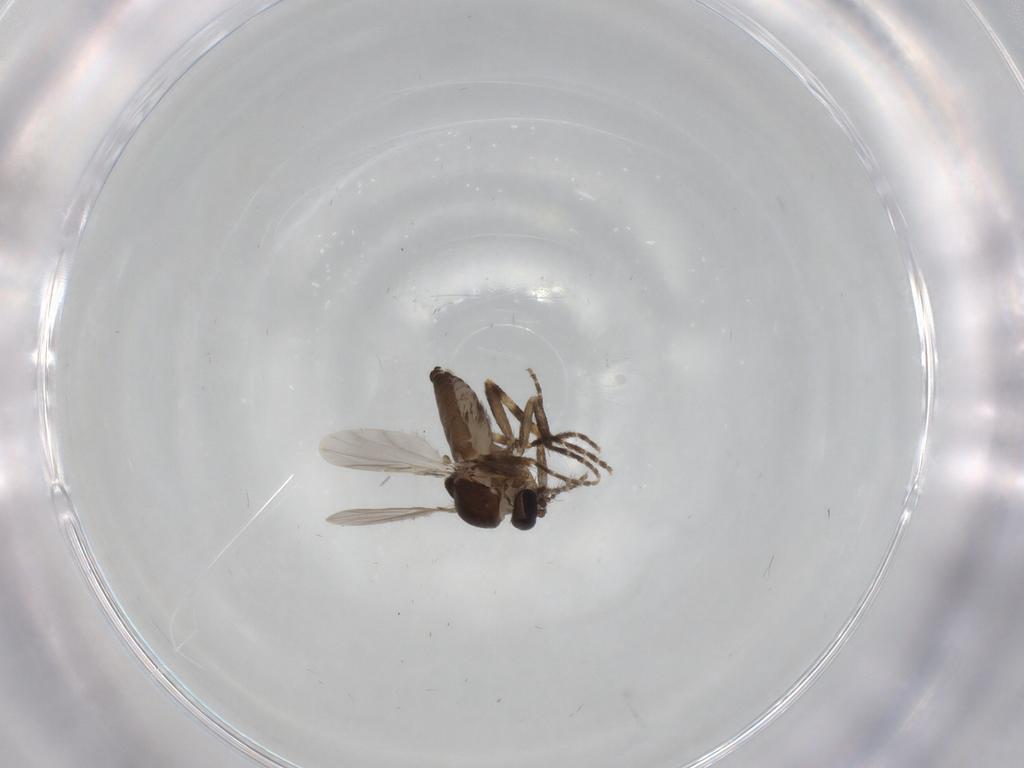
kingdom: Animalia
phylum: Arthropoda
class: Insecta
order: Diptera
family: Ceratopogonidae
